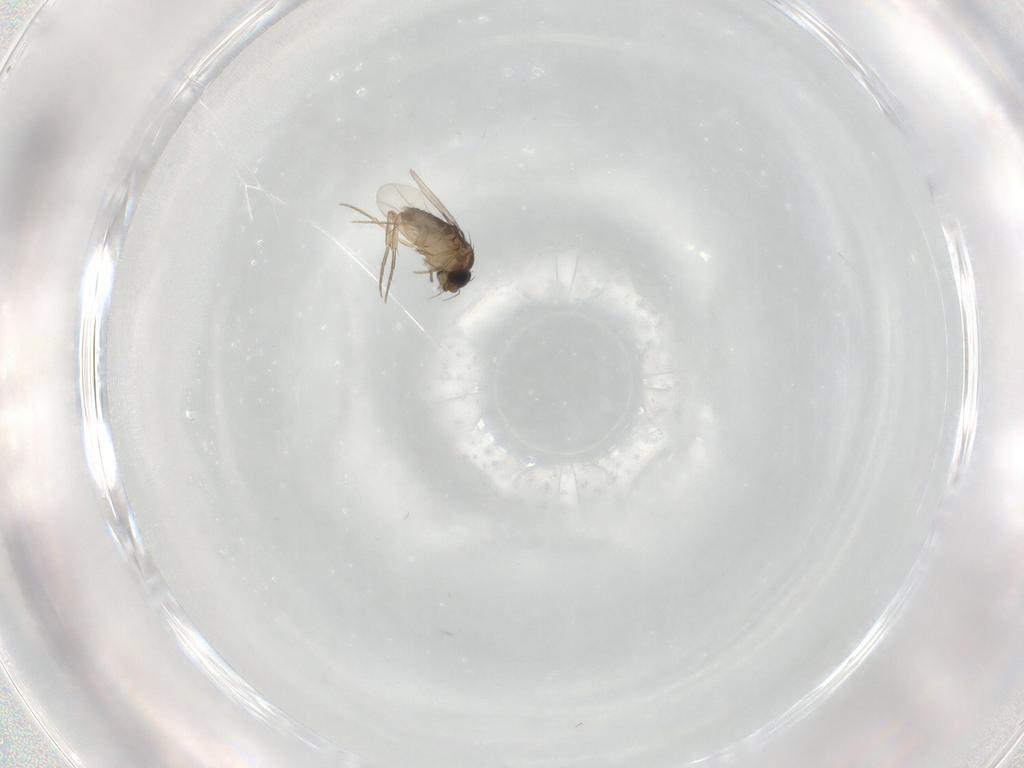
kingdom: Animalia
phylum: Arthropoda
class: Insecta
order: Diptera
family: Phoridae
